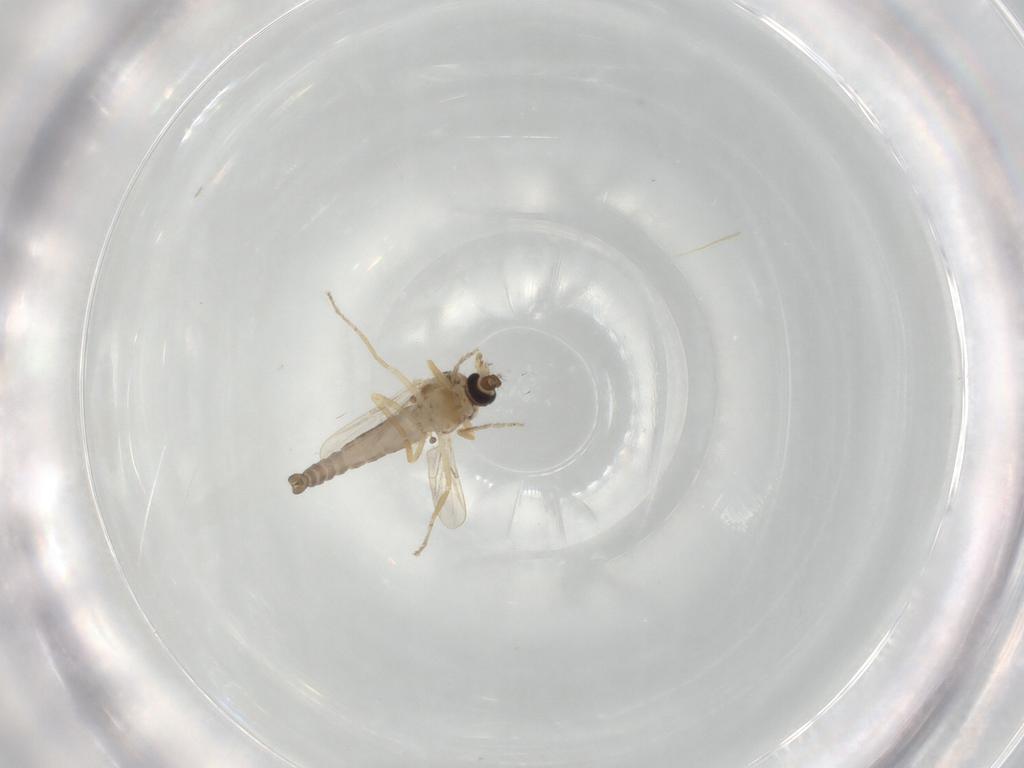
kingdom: Animalia
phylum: Arthropoda
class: Insecta
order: Diptera
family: Ceratopogonidae
